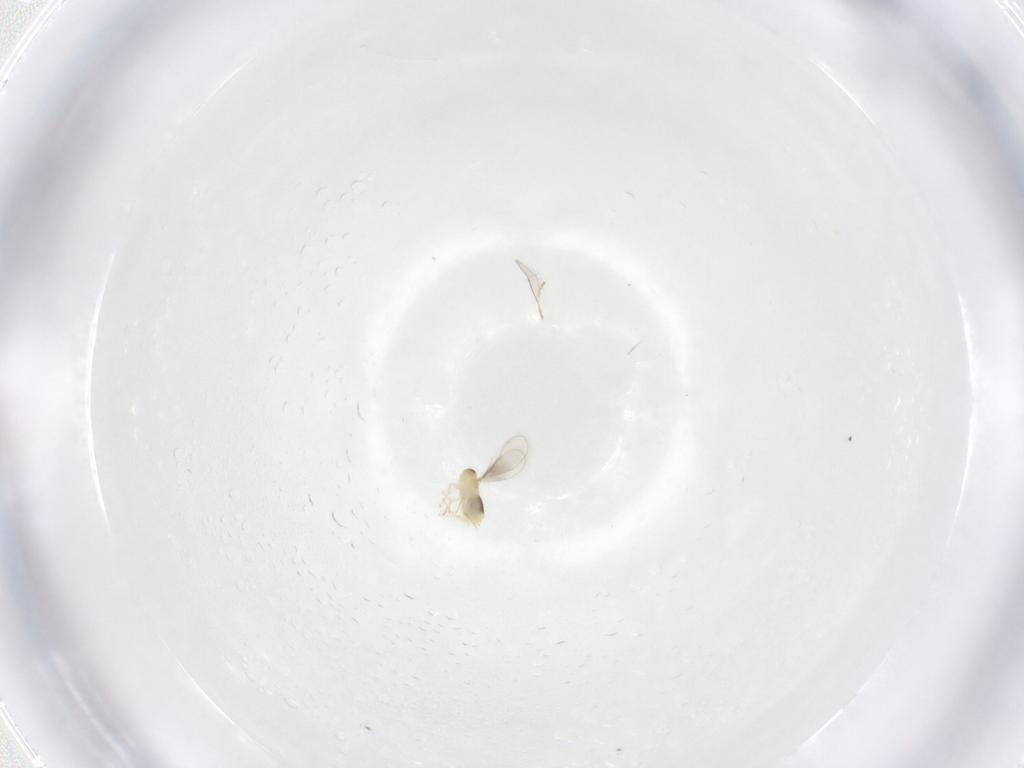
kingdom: Animalia
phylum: Arthropoda
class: Insecta
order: Hymenoptera
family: Aphelinidae
